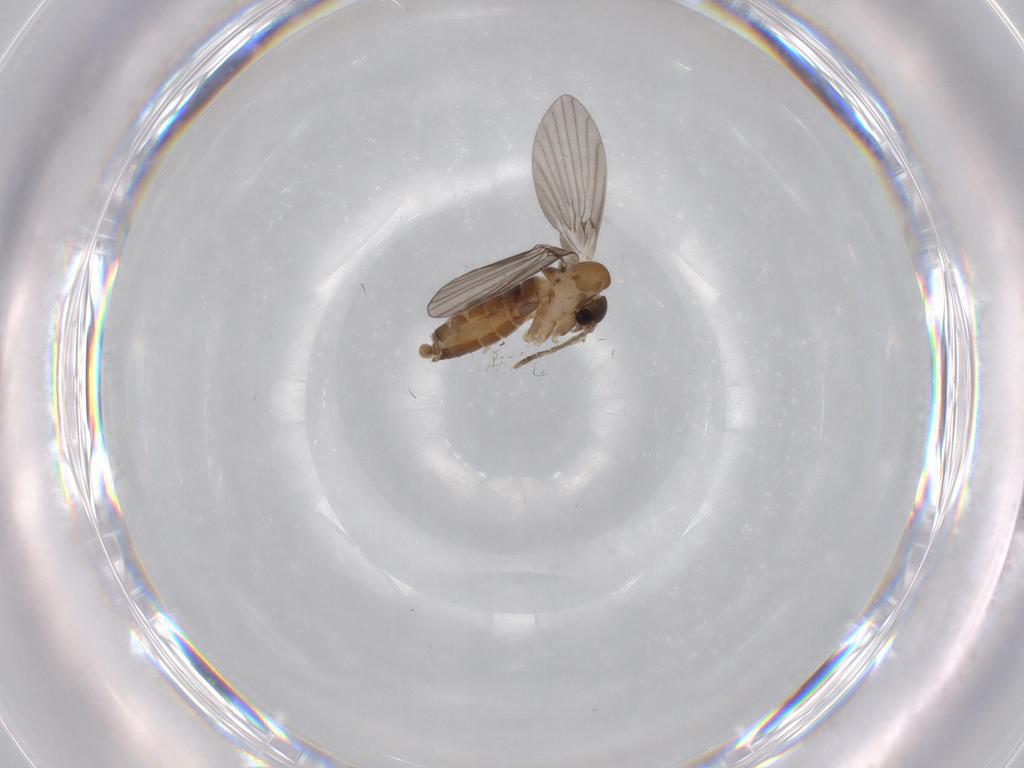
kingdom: Animalia
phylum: Arthropoda
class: Insecta
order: Diptera
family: Phoridae
